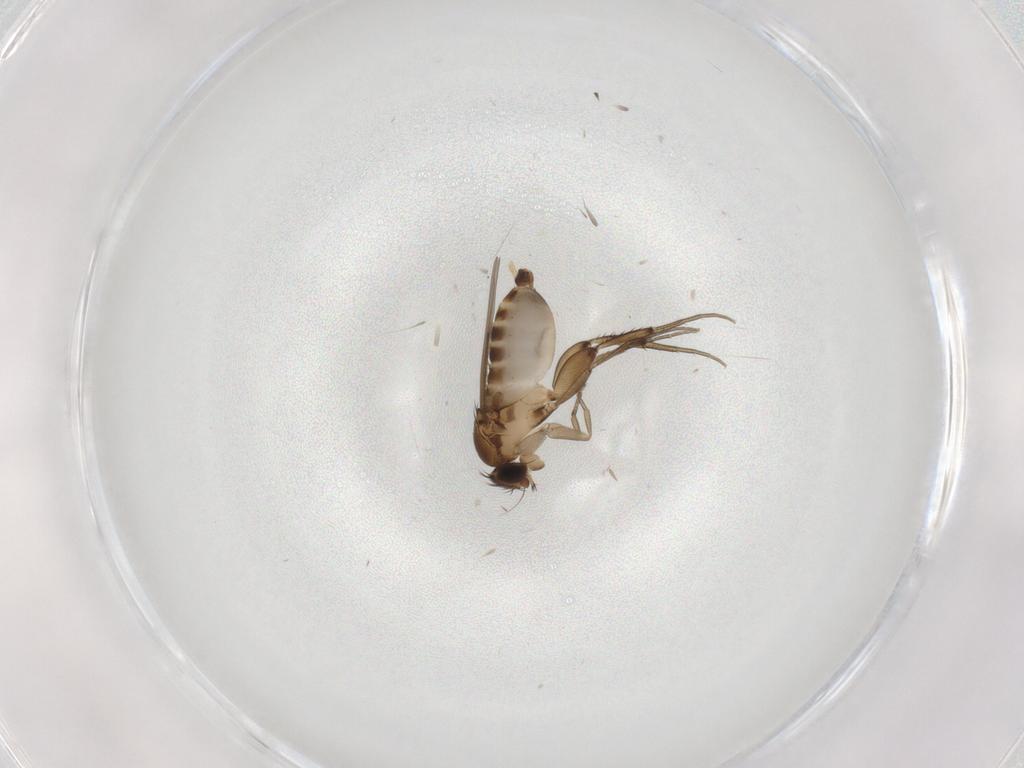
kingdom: Animalia
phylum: Arthropoda
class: Insecta
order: Diptera
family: Phoridae
